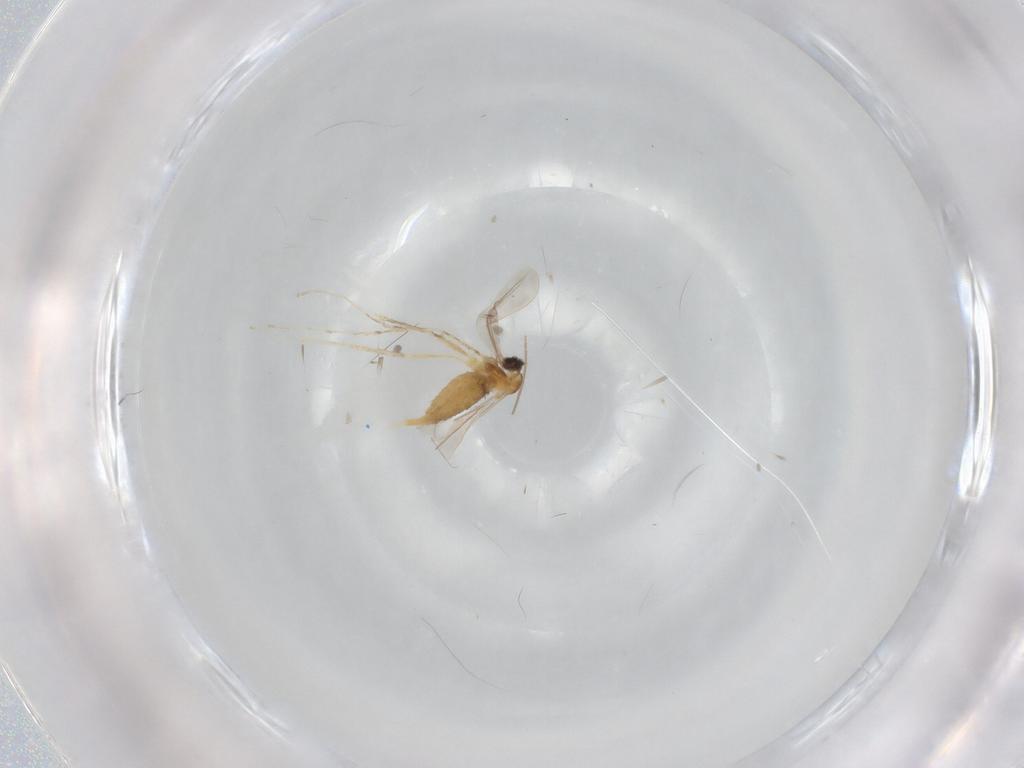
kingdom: Animalia
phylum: Arthropoda
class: Insecta
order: Diptera
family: Cecidomyiidae
